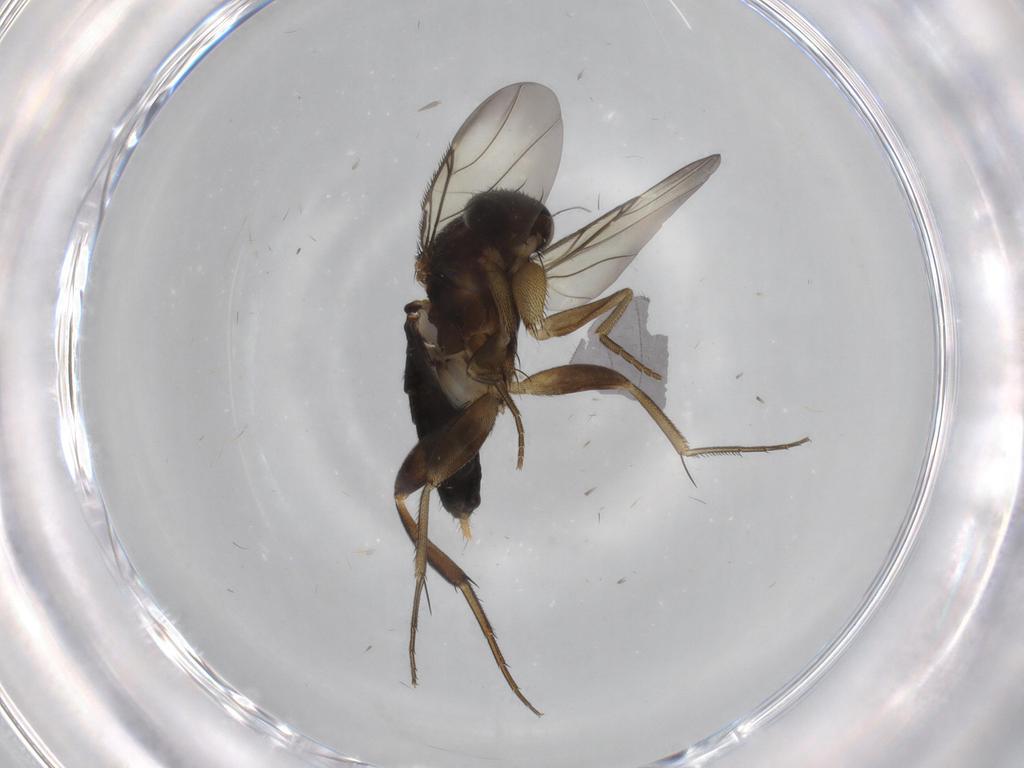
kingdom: Animalia
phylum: Arthropoda
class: Insecta
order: Diptera
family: Phoridae
